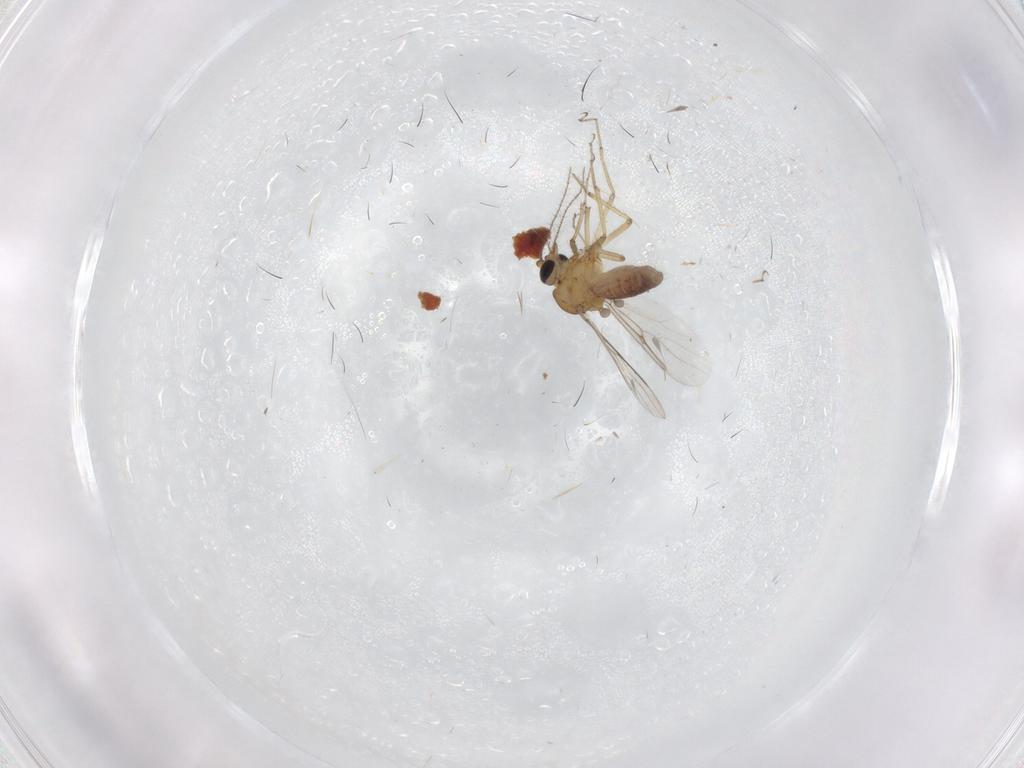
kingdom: Animalia
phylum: Arthropoda
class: Insecta
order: Diptera
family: Ceratopogonidae
